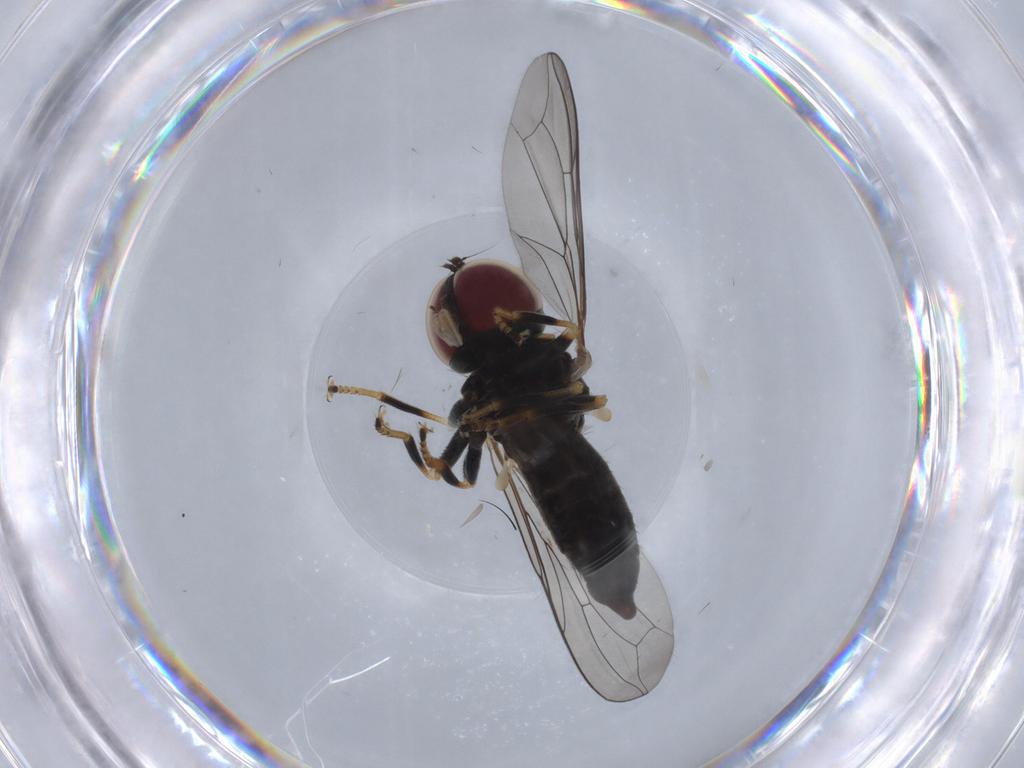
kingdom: Animalia
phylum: Arthropoda
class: Insecta
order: Diptera
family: Pipunculidae
